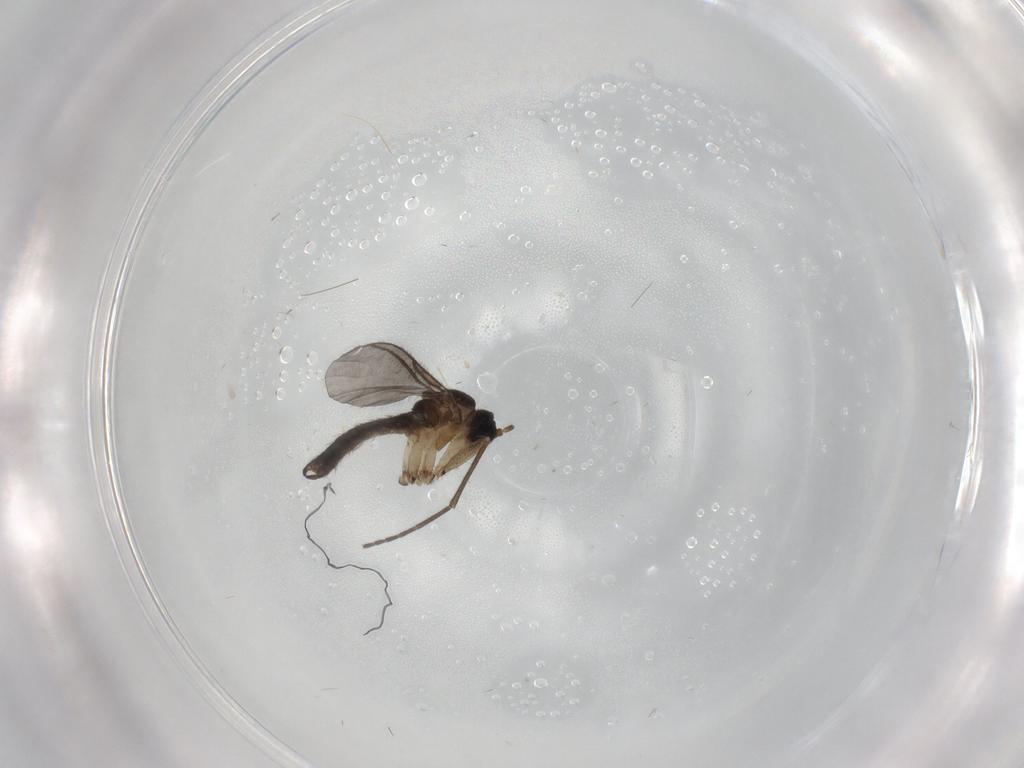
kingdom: Animalia
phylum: Arthropoda
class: Insecta
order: Diptera
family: Sciaridae
